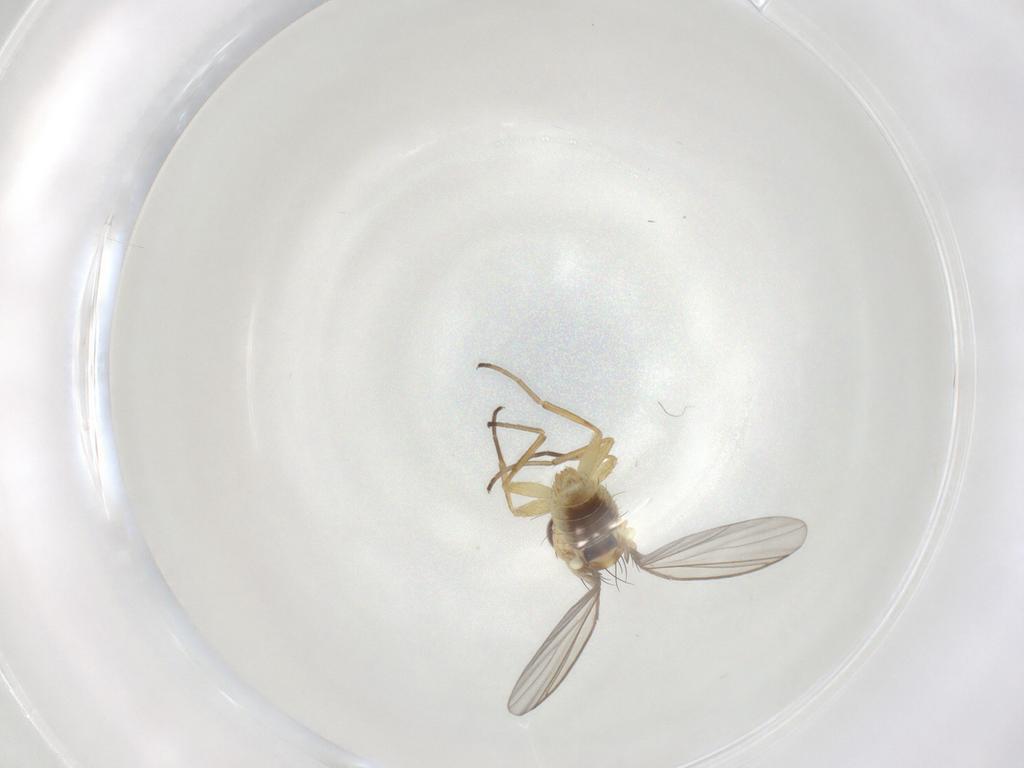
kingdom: Animalia
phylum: Arthropoda
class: Insecta
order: Diptera
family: Agromyzidae
